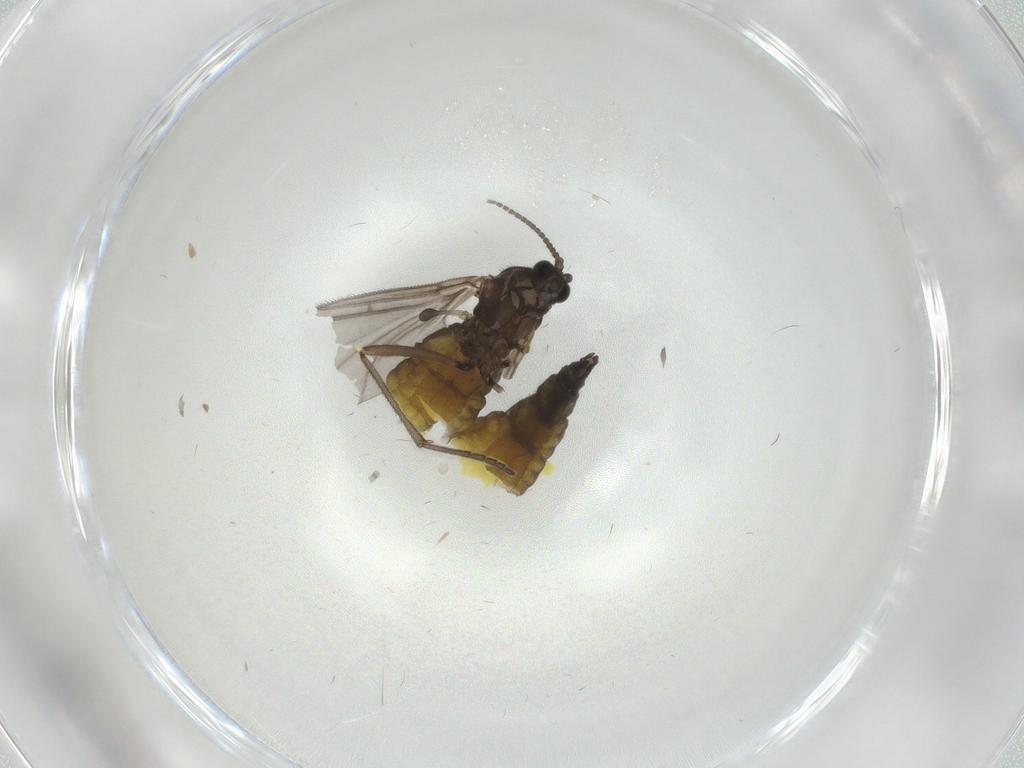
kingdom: Animalia
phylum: Arthropoda
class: Insecta
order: Diptera
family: Sciaridae
